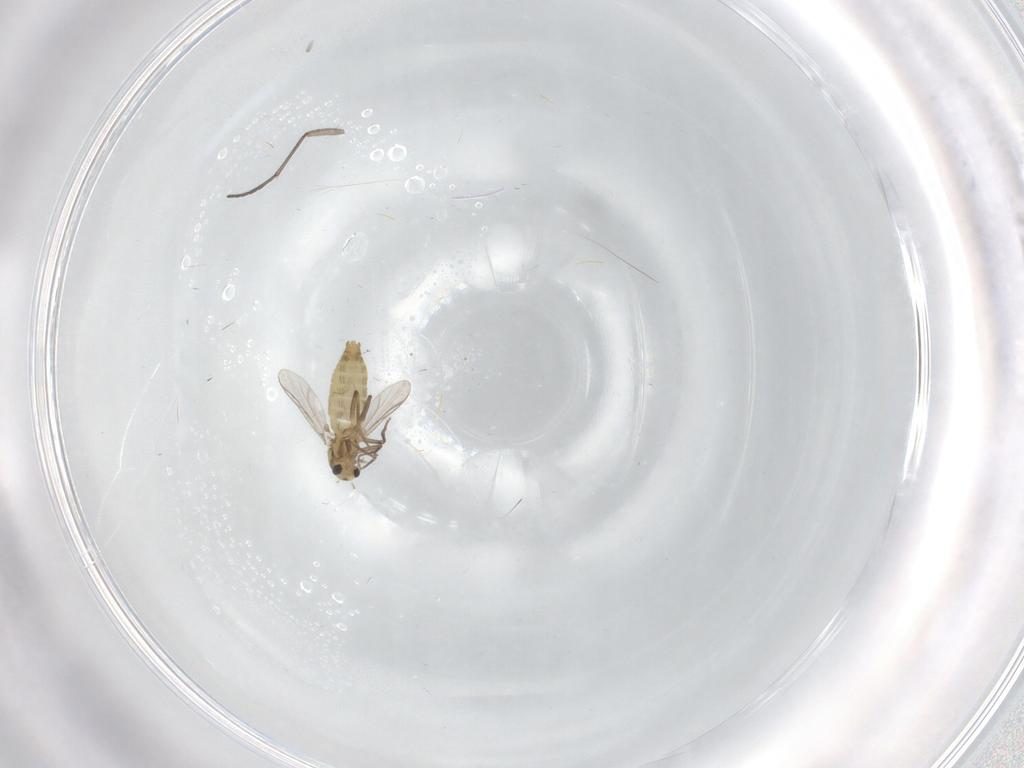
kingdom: Animalia
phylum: Arthropoda
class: Insecta
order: Diptera
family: Chironomidae
